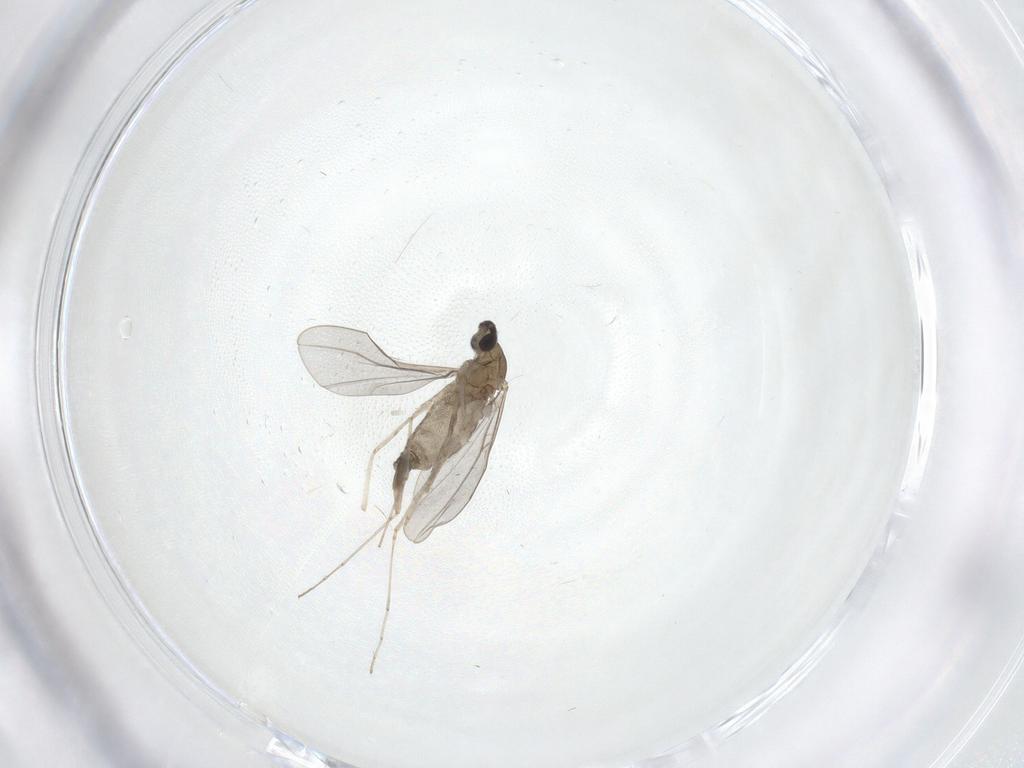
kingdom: Animalia
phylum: Arthropoda
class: Insecta
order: Diptera
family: Cecidomyiidae
